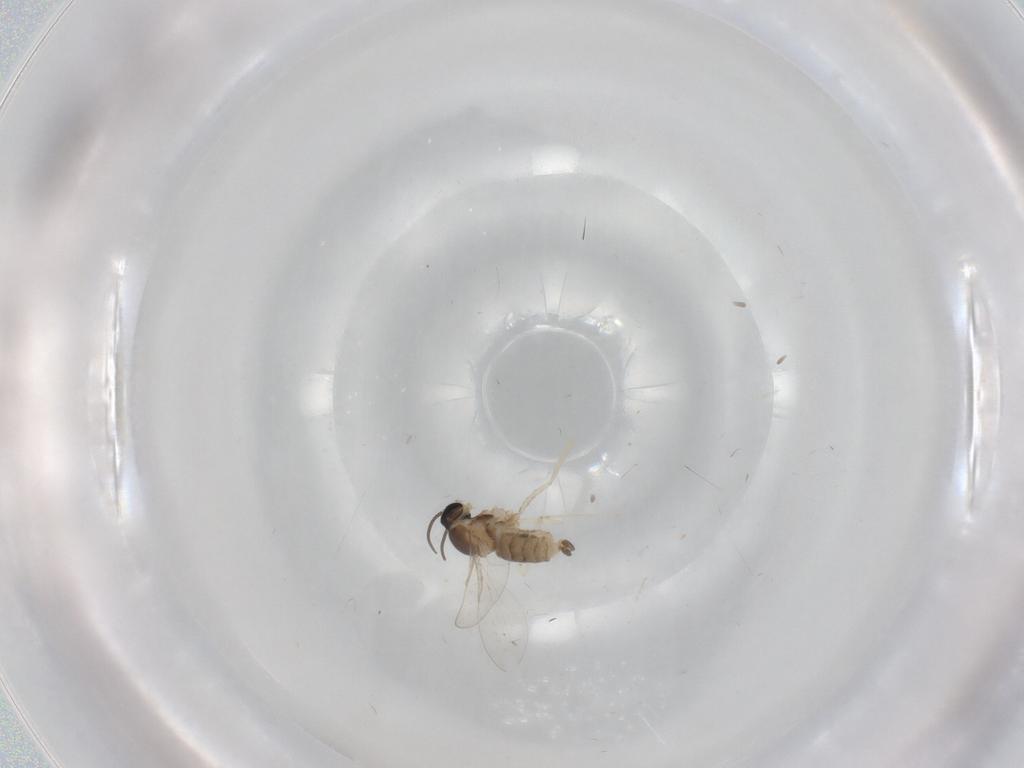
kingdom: Animalia
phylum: Arthropoda
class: Insecta
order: Diptera
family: Cecidomyiidae
